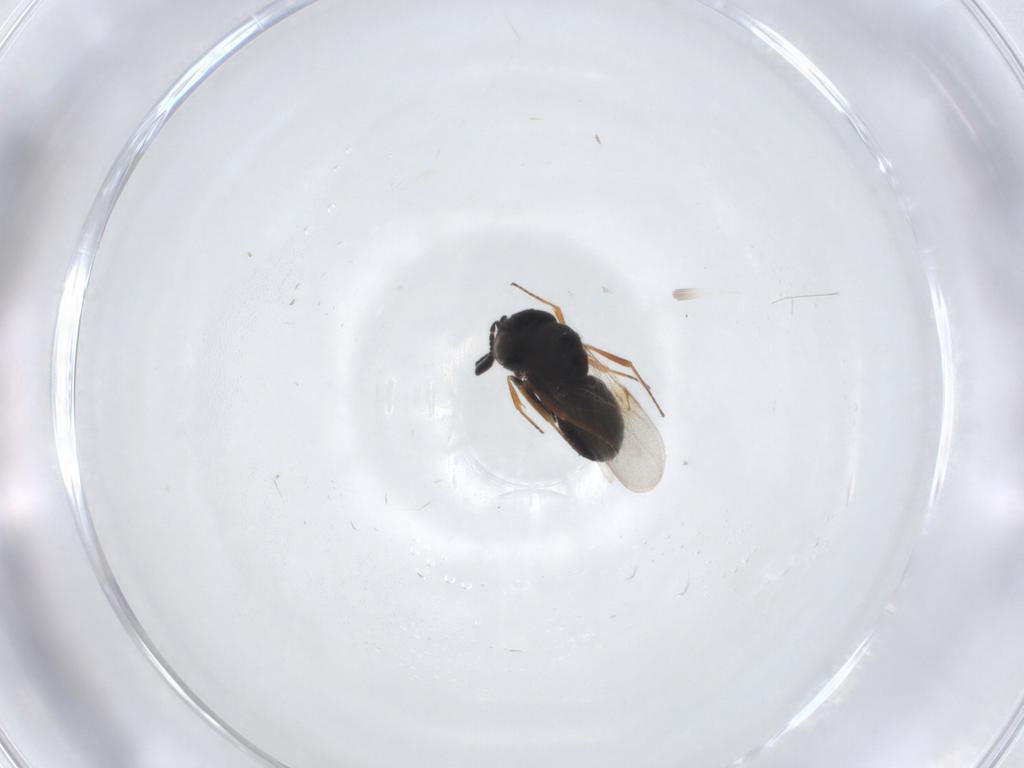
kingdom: Animalia
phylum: Arthropoda
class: Insecta
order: Hymenoptera
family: Scelionidae
